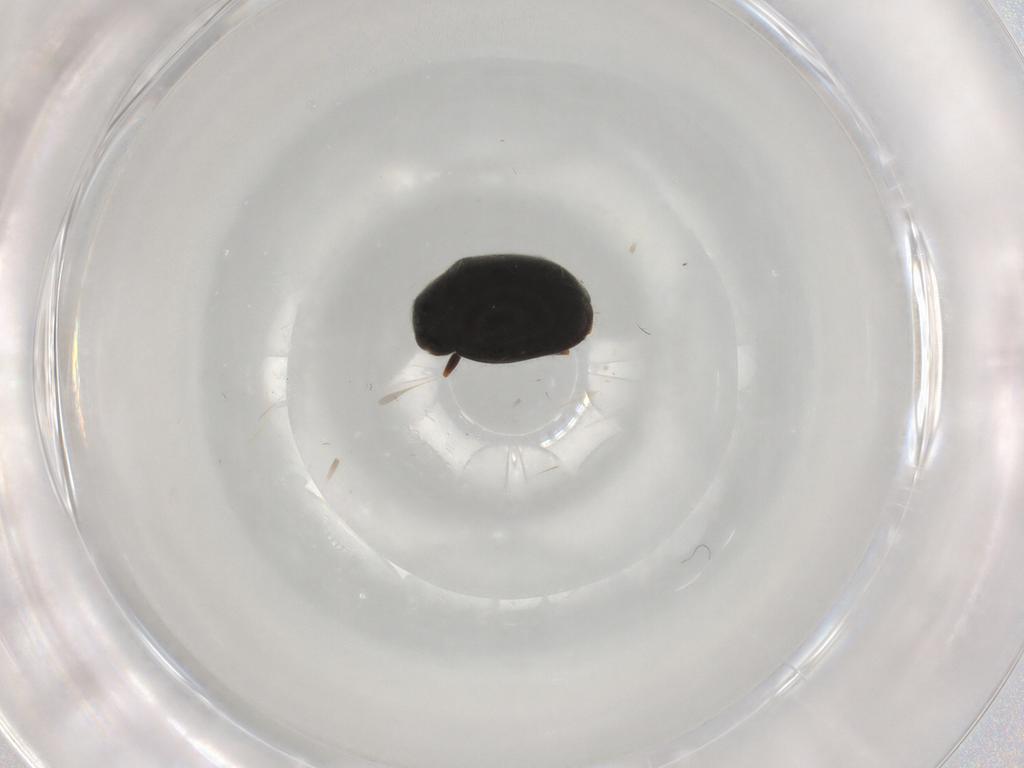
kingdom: Animalia
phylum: Arthropoda
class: Insecta
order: Coleoptera
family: Coccinellidae
